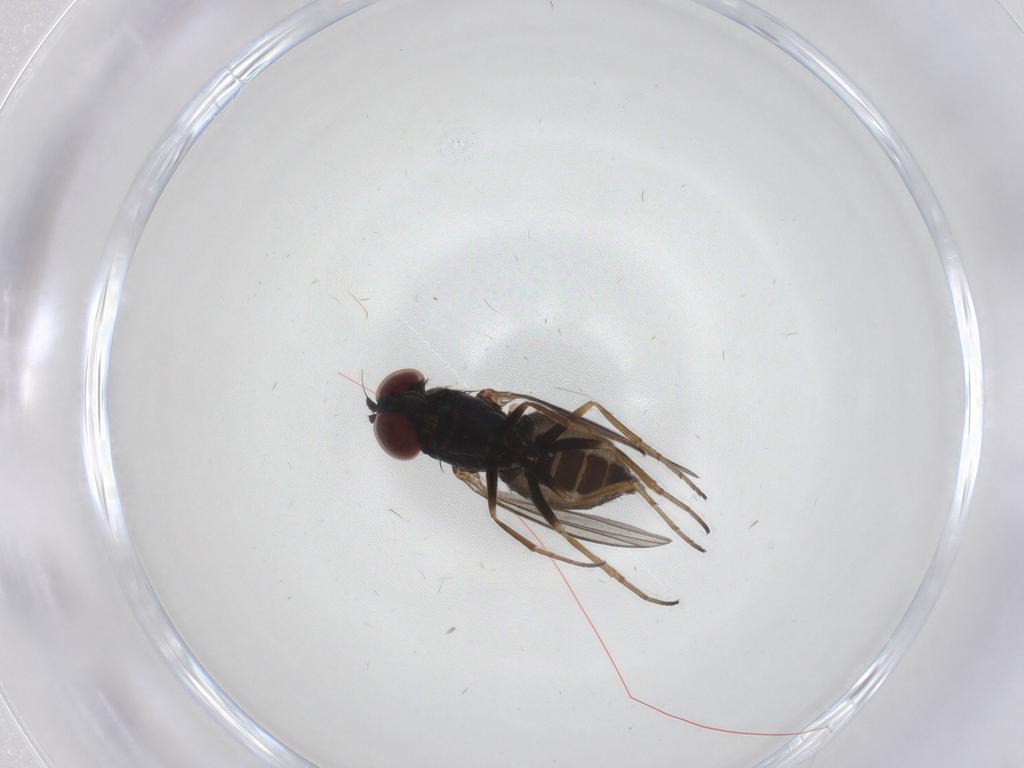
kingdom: Animalia
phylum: Arthropoda
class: Insecta
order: Diptera
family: Dolichopodidae
